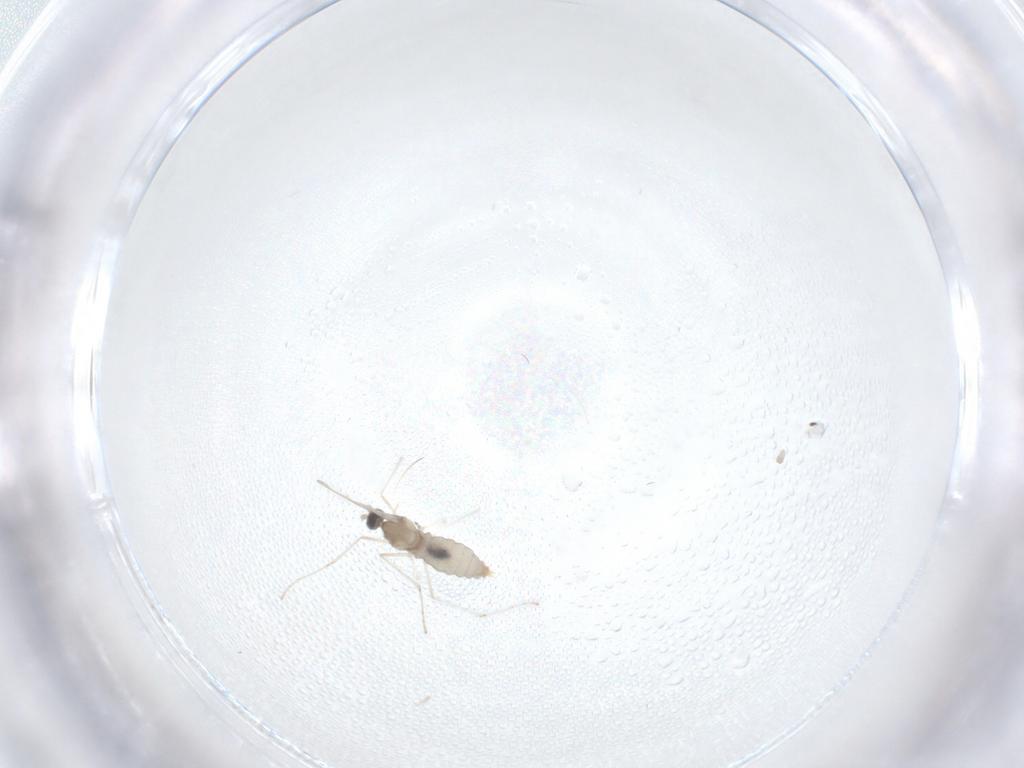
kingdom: Animalia
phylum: Arthropoda
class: Insecta
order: Diptera
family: Cecidomyiidae
